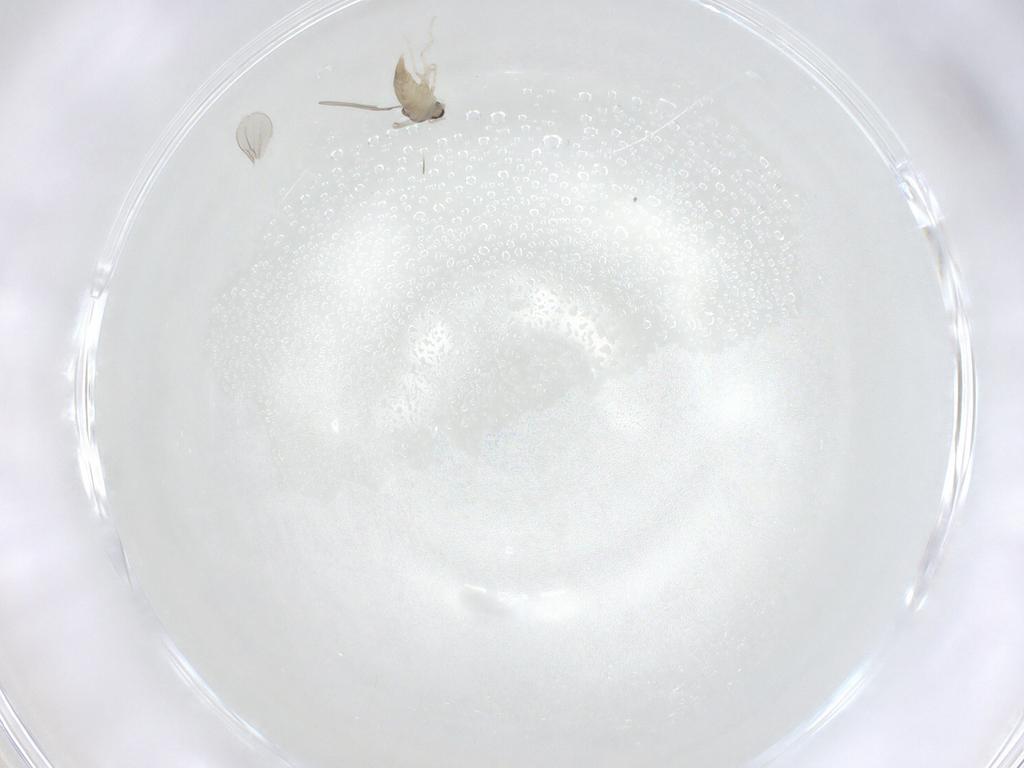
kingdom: Animalia
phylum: Arthropoda
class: Insecta
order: Diptera
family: Cecidomyiidae
